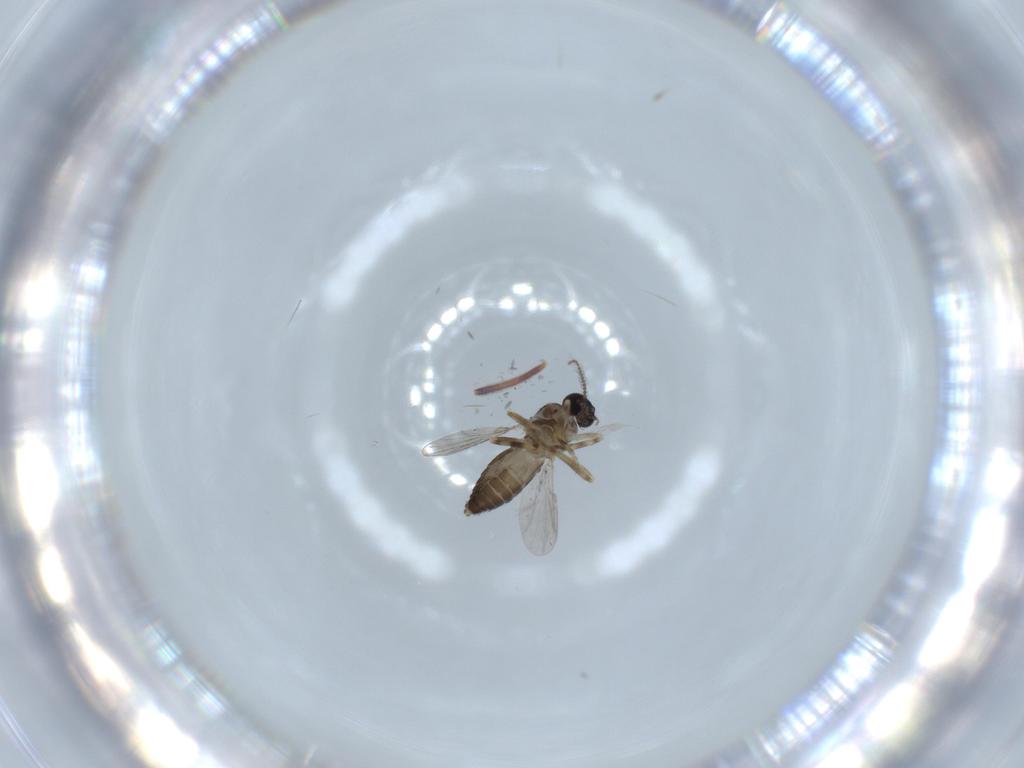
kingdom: Animalia
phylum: Arthropoda
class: Insecta
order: Diptera
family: Ceratopogonidae
